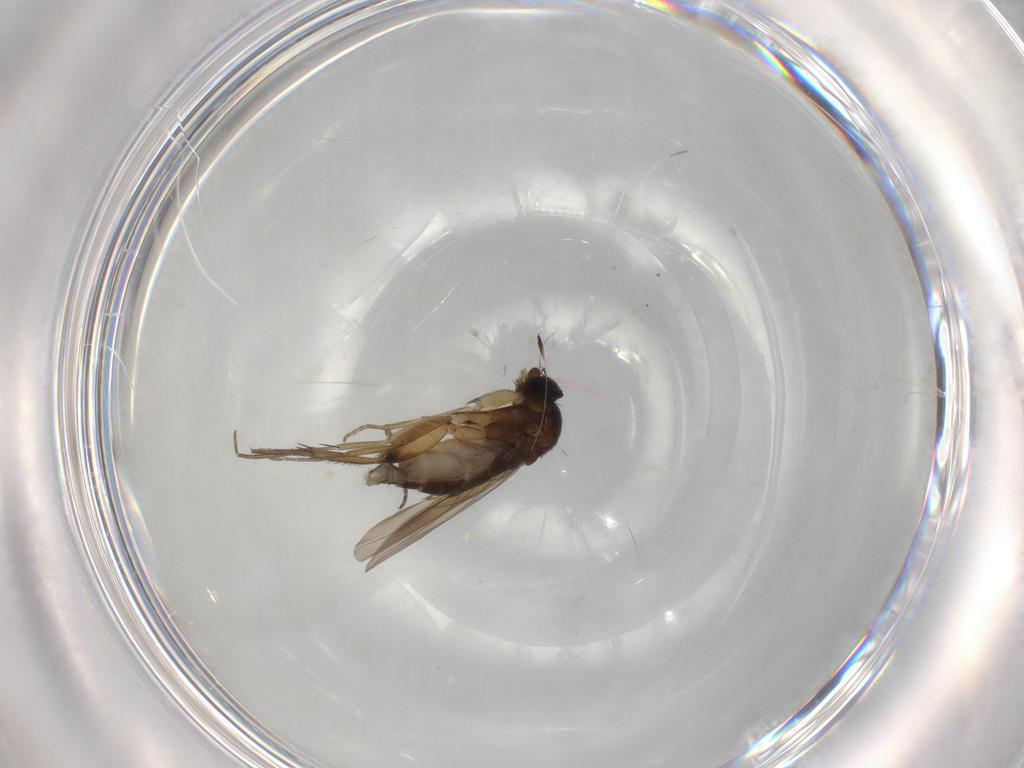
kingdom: Animalia
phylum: Arthropoda
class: Insecta
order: Diptera
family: Phoridae
